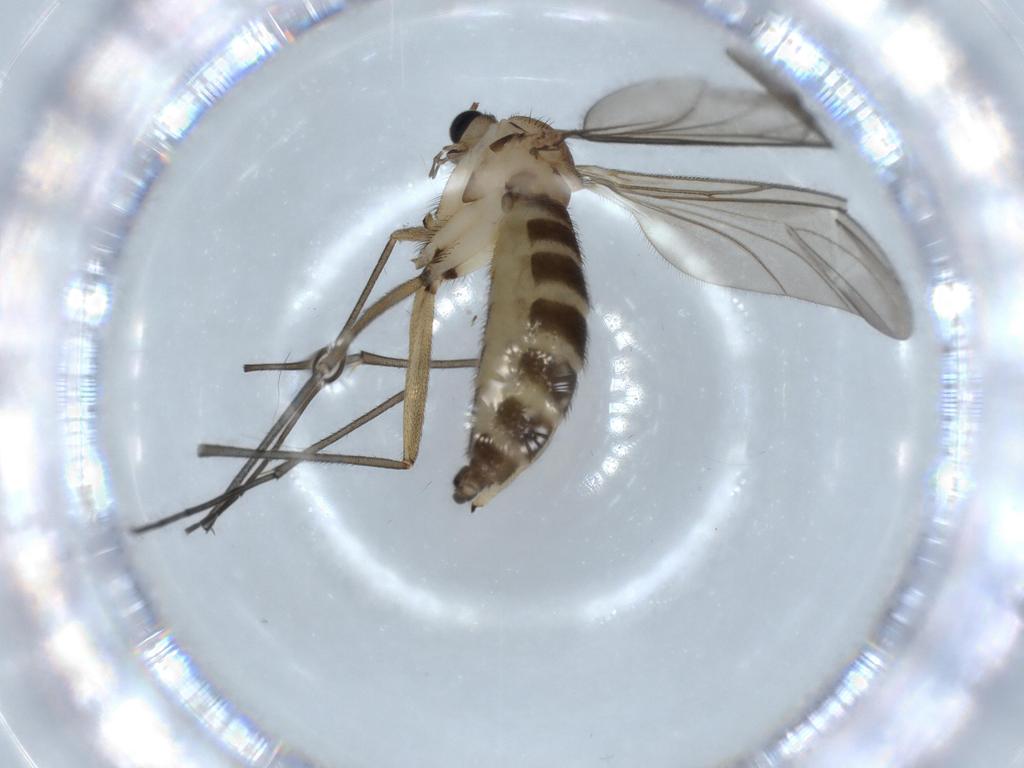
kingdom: Animalia
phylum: Arthropoda
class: Insecta
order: Diptera
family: Sciaridae
